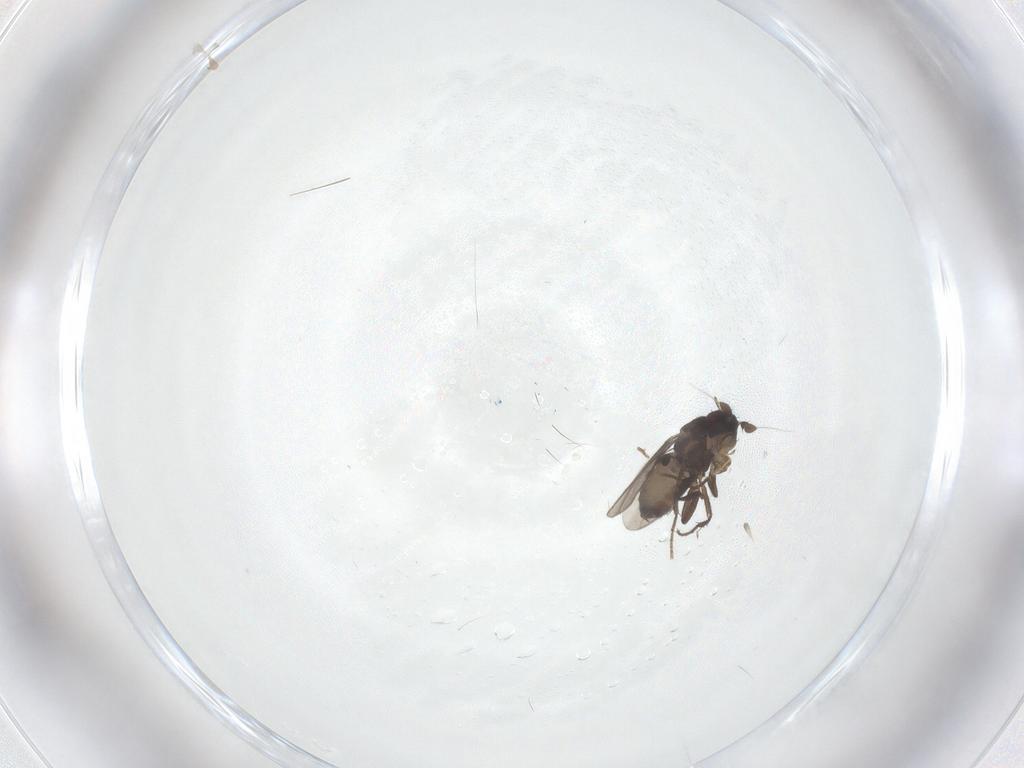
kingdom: Animalia
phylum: Arthropoda
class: Insecta
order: Diptera
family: Sphaeroceridae
